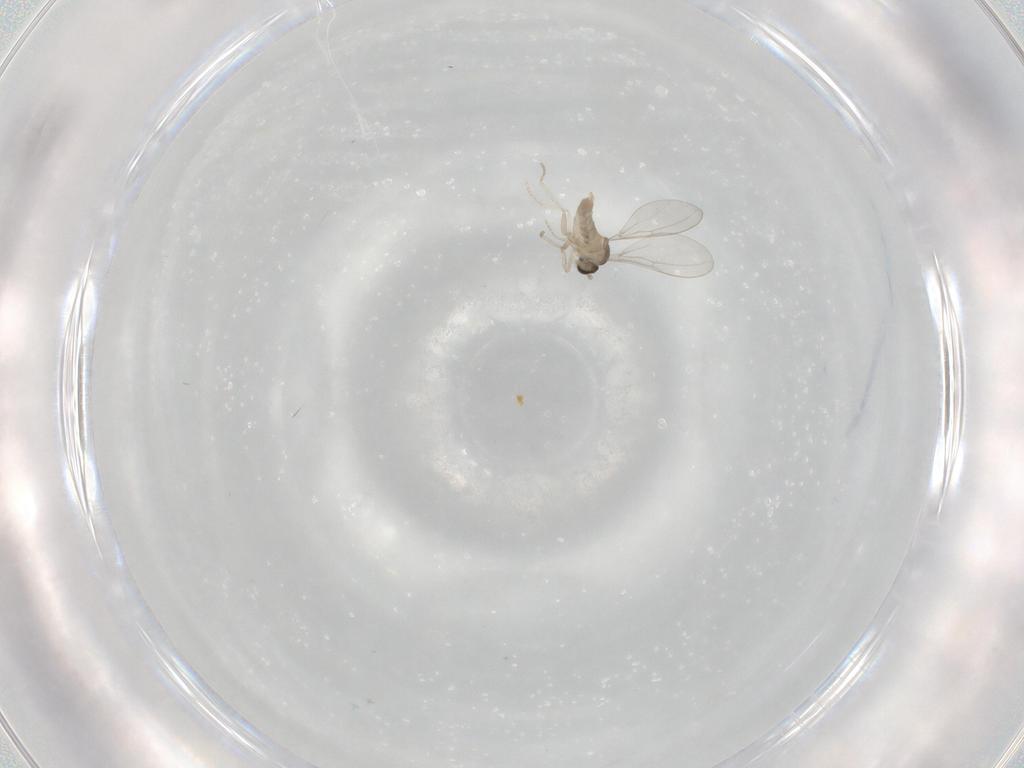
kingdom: Animalia
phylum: Arthropoda
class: Insecta
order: Diptera
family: Cecidomyiidae
